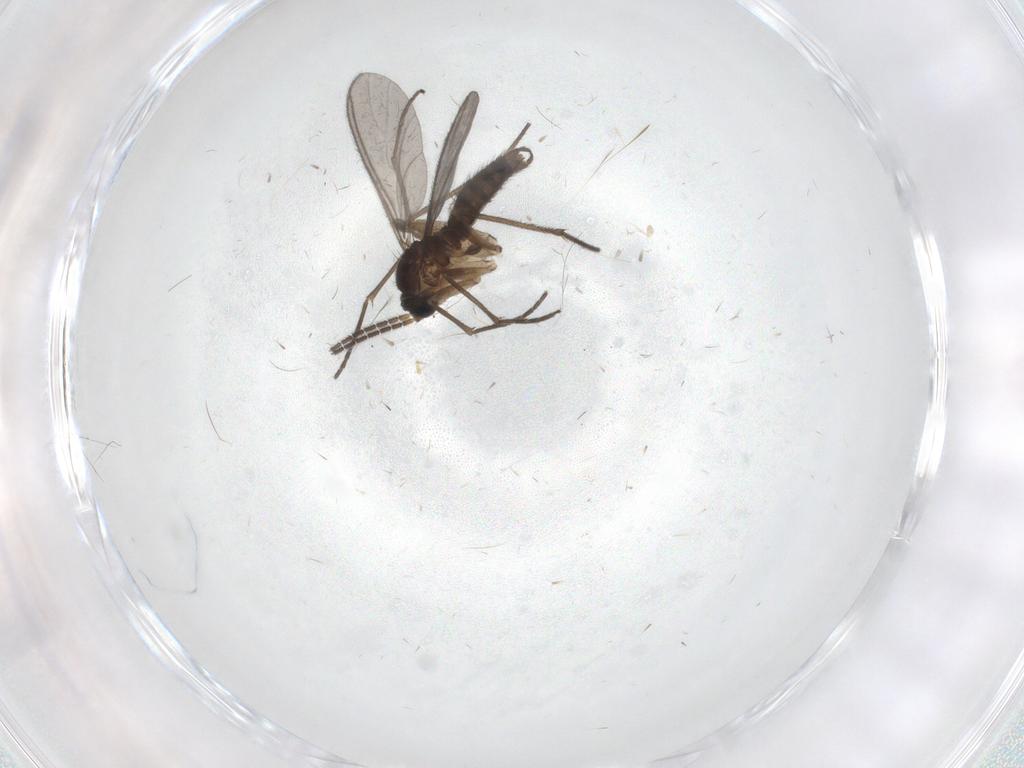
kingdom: Animalia
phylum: Arthropoda
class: Insecta
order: Diptera
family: Sciaridae
